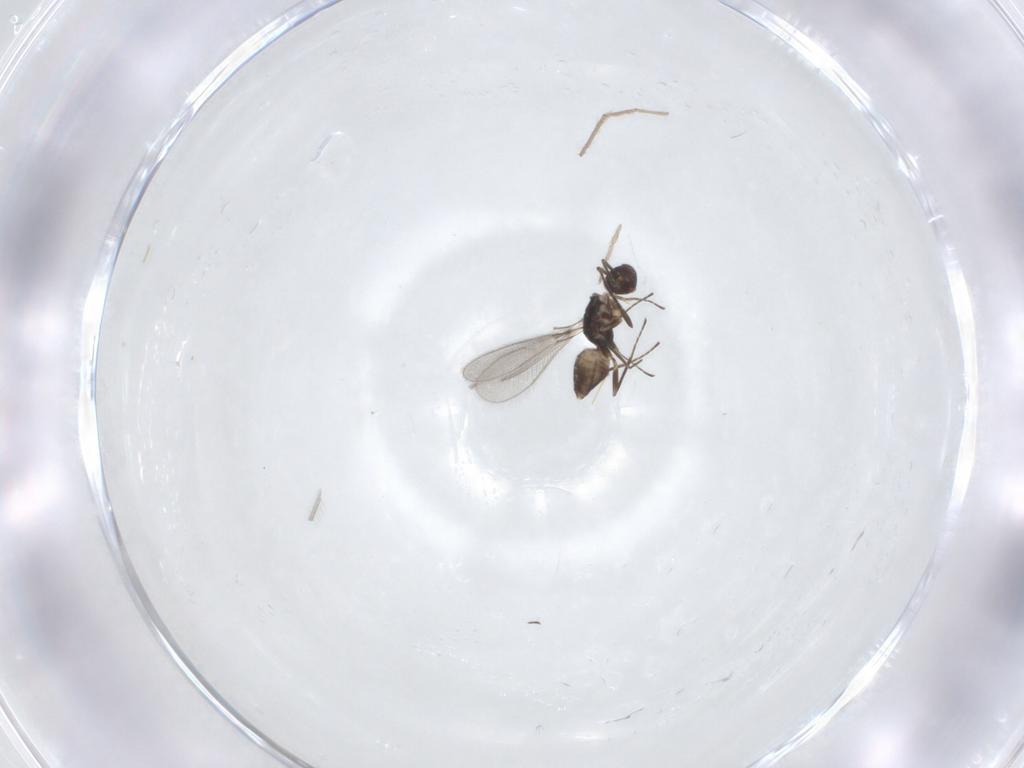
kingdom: Animalia
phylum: Arthropoda
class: Insecta
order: Hymenoptera
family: Mymaridae
